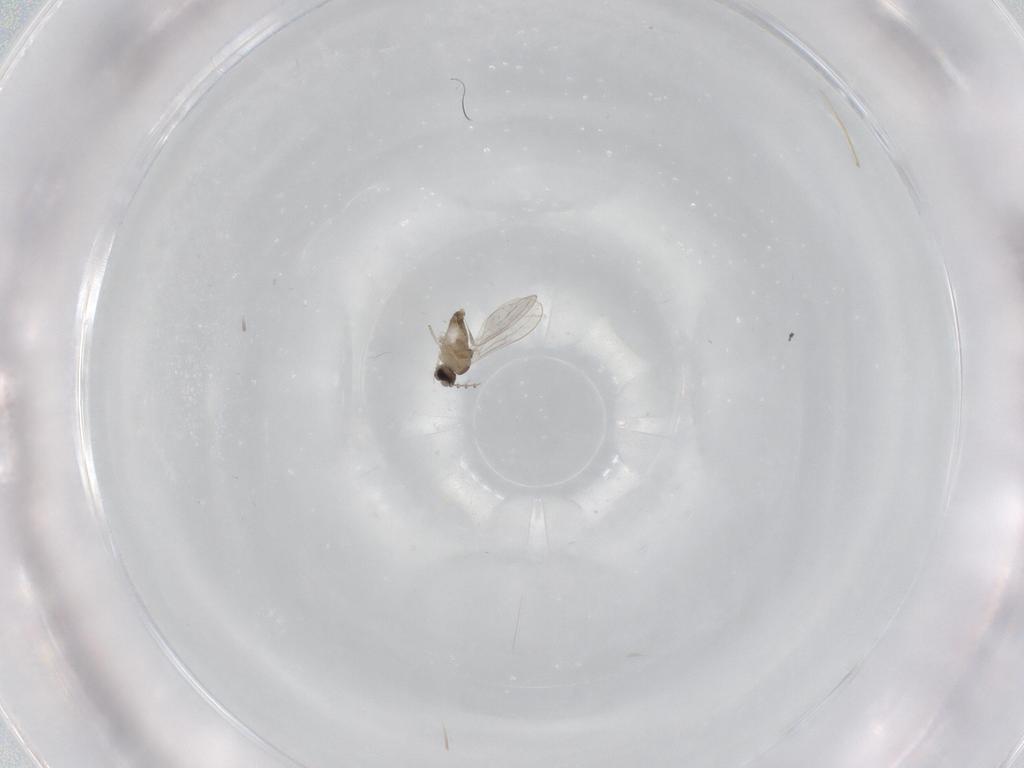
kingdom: Animalia
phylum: Arthropoda
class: Insecta
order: Diptera
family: Cecidomyiidae
